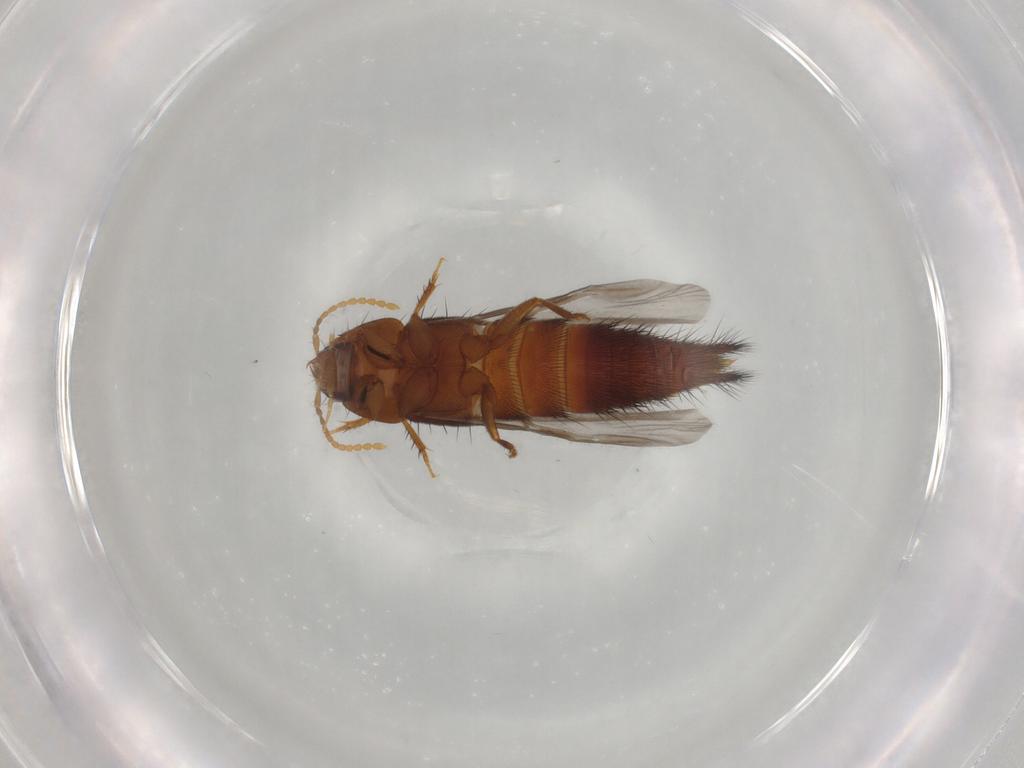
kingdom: Animalia
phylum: Arthropoda
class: Insecta
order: Coleoptera
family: Staphylinidae
